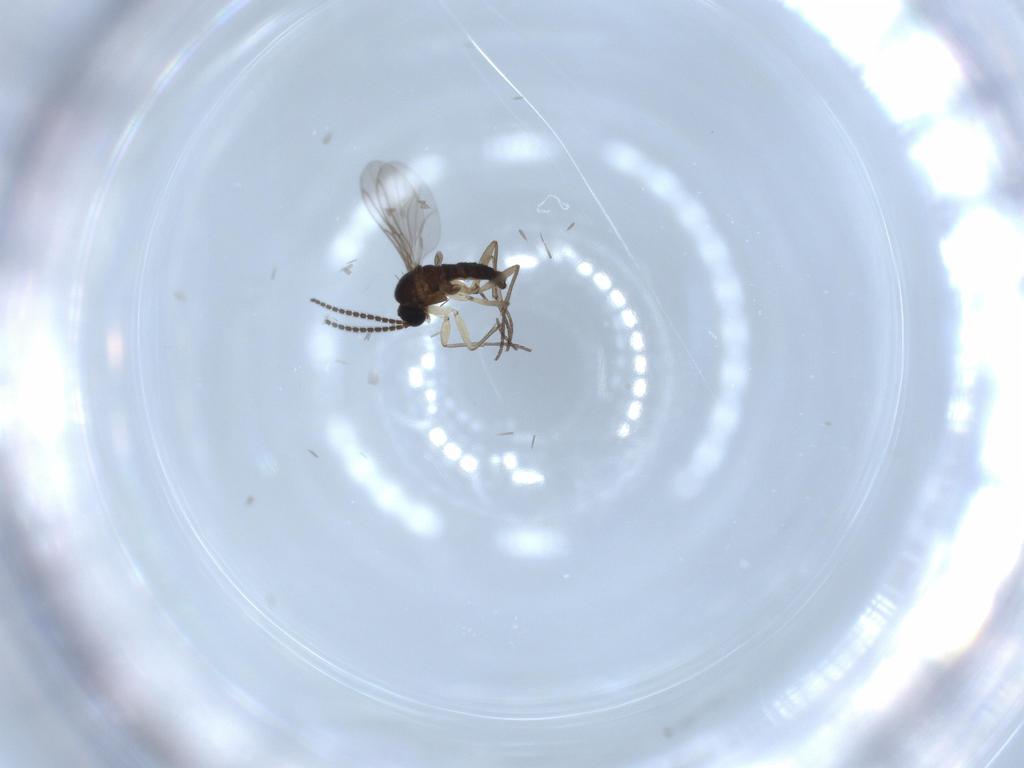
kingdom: Animalia
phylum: Arthropoda
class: Insecta
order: Diptera
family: Sciaridae
